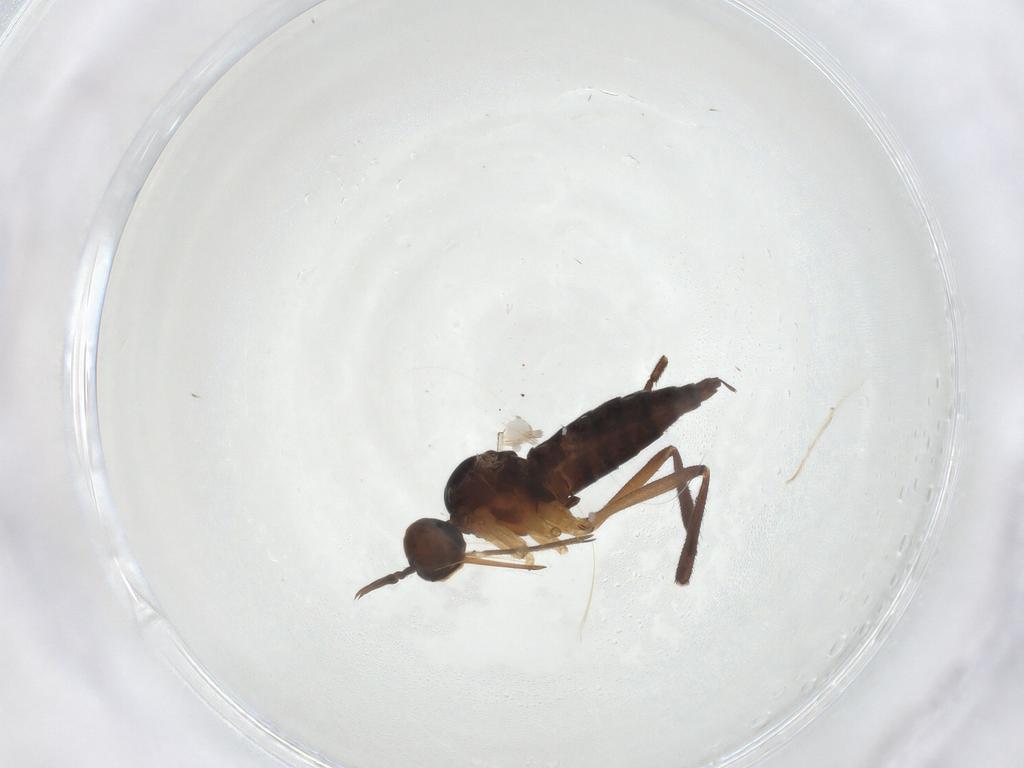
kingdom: Animalia
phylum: Arthropoda
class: Insecta
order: Diptera
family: Dolichopodidae
